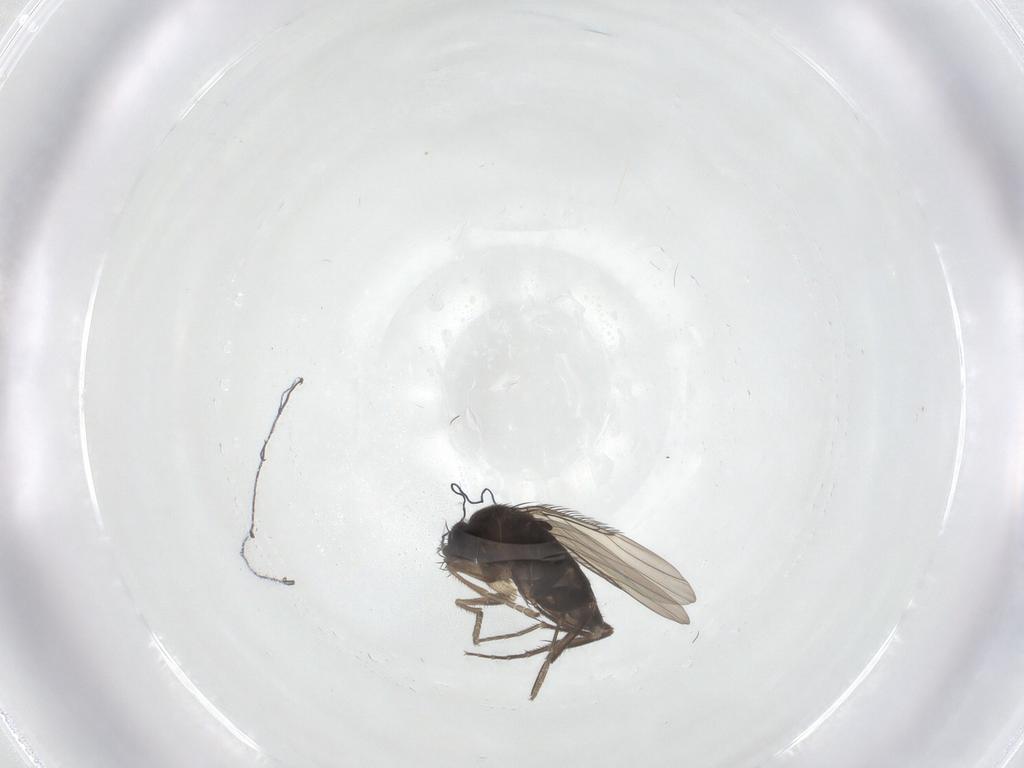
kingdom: Animalia
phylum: Arthropoda
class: Insecta
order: Diptera
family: Phoridae
